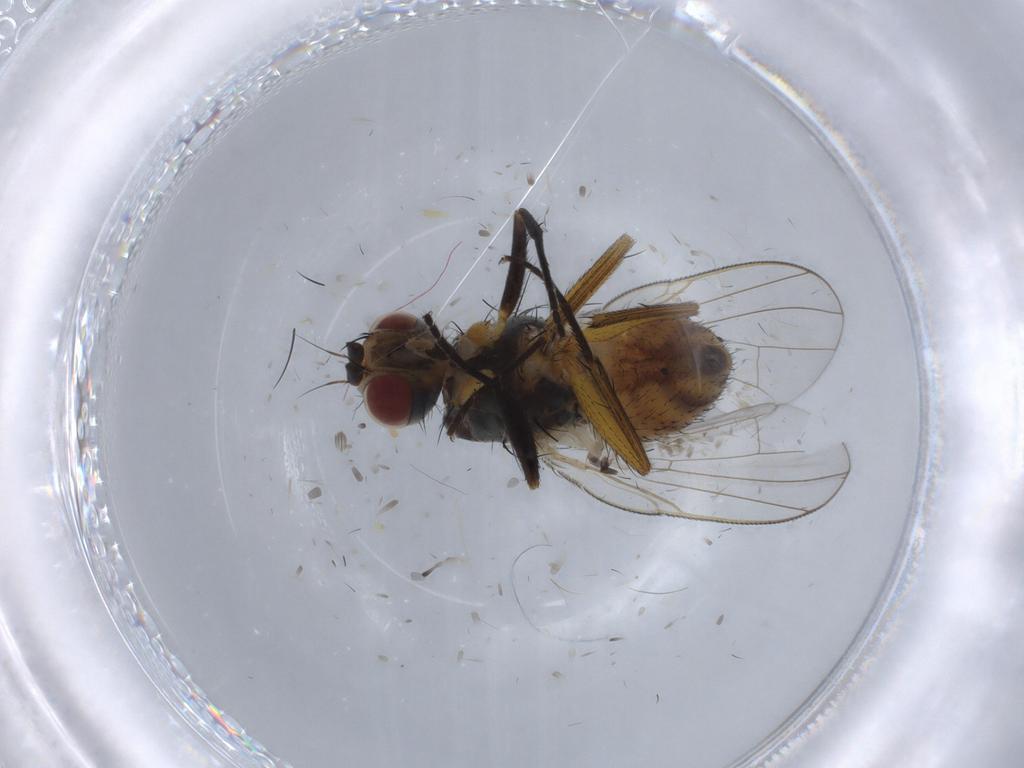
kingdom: Animalia
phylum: Arthropoda
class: Insecta
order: Diptera
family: Muscidae
